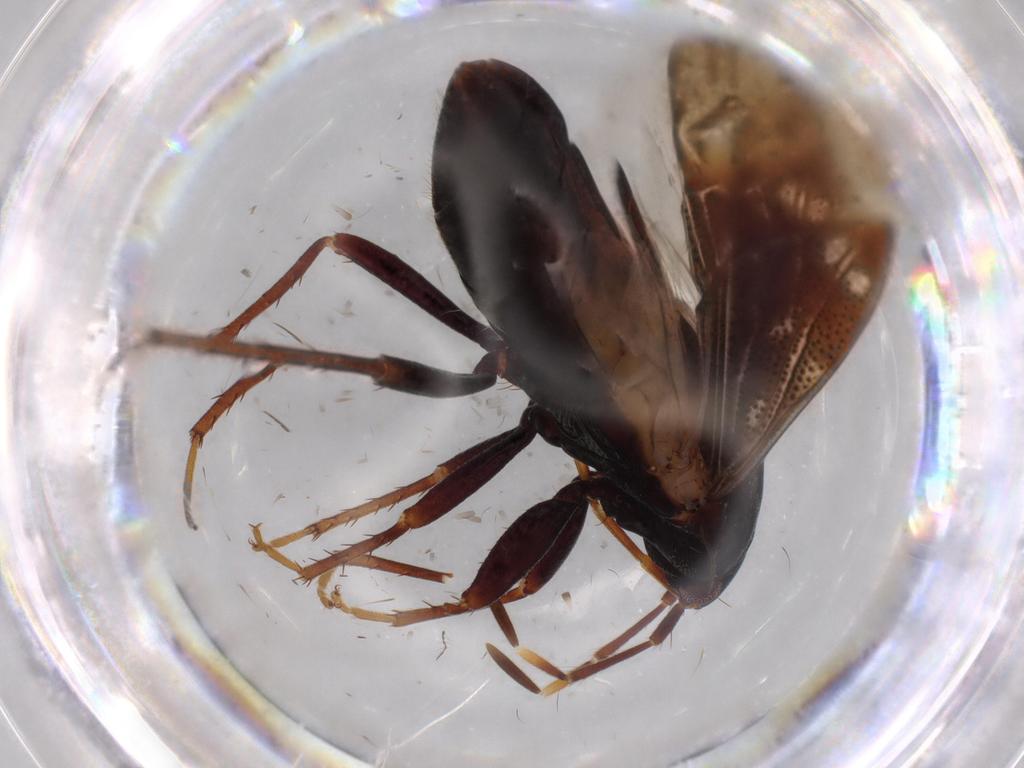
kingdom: Animalia
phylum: Arthropoda
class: Insecta
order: Hemiptera
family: Rhyparochromidae
